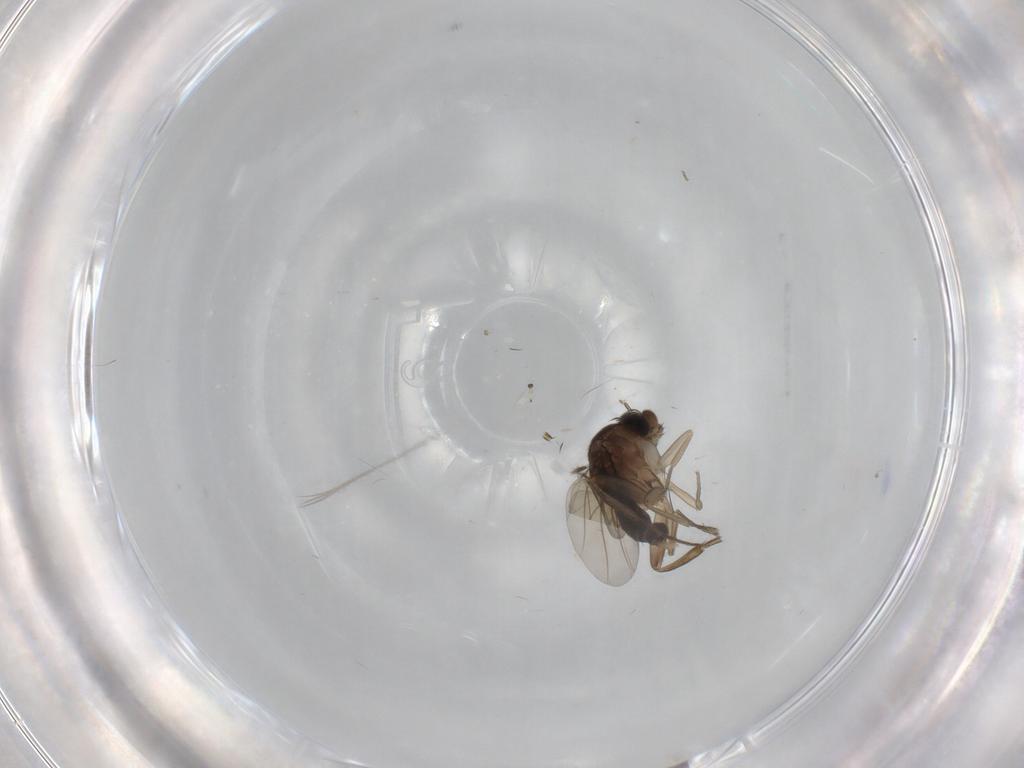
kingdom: Animalia
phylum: Arthropoda
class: Insecta
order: Diptera
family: Phoridae
